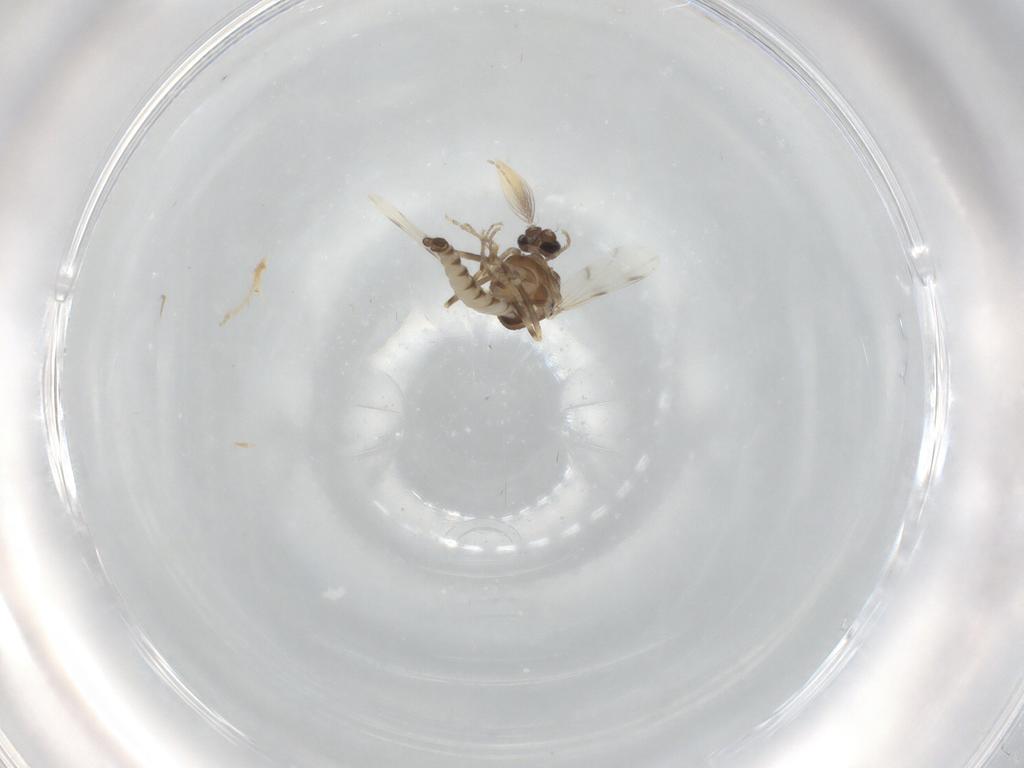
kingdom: Animalia
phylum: Arthropoda
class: Insecta
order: Diptera
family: Ceratopogonidae
